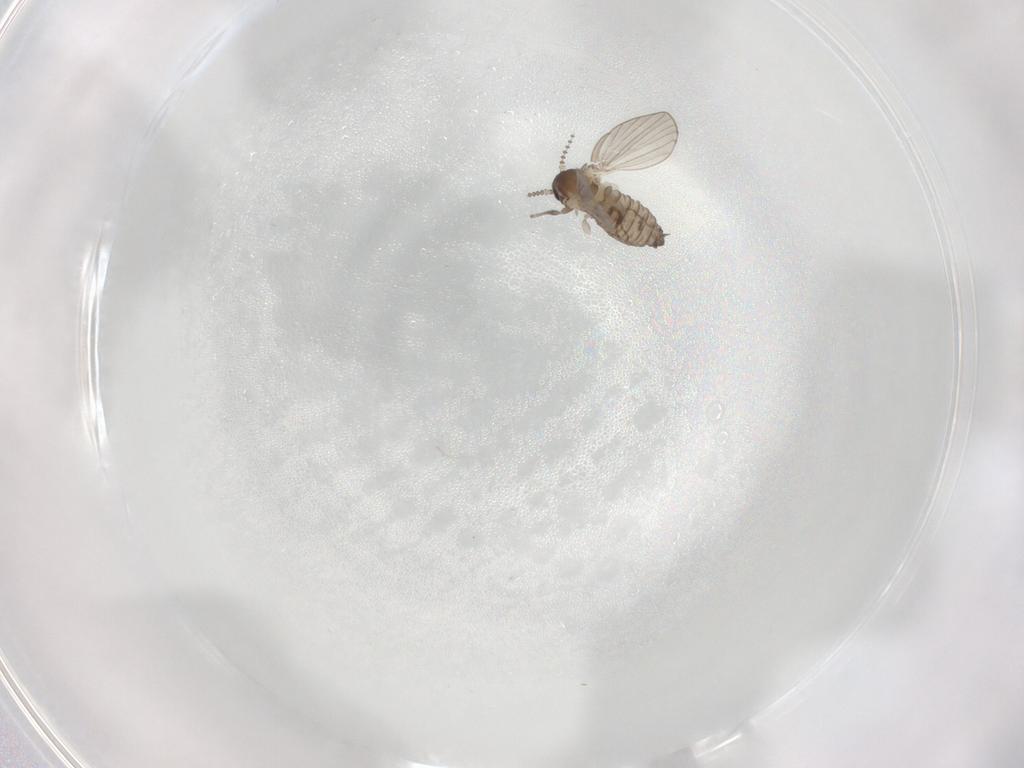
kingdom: Animalia
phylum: Arthropoda
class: Insecta
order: Diptera
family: Psychodidae
